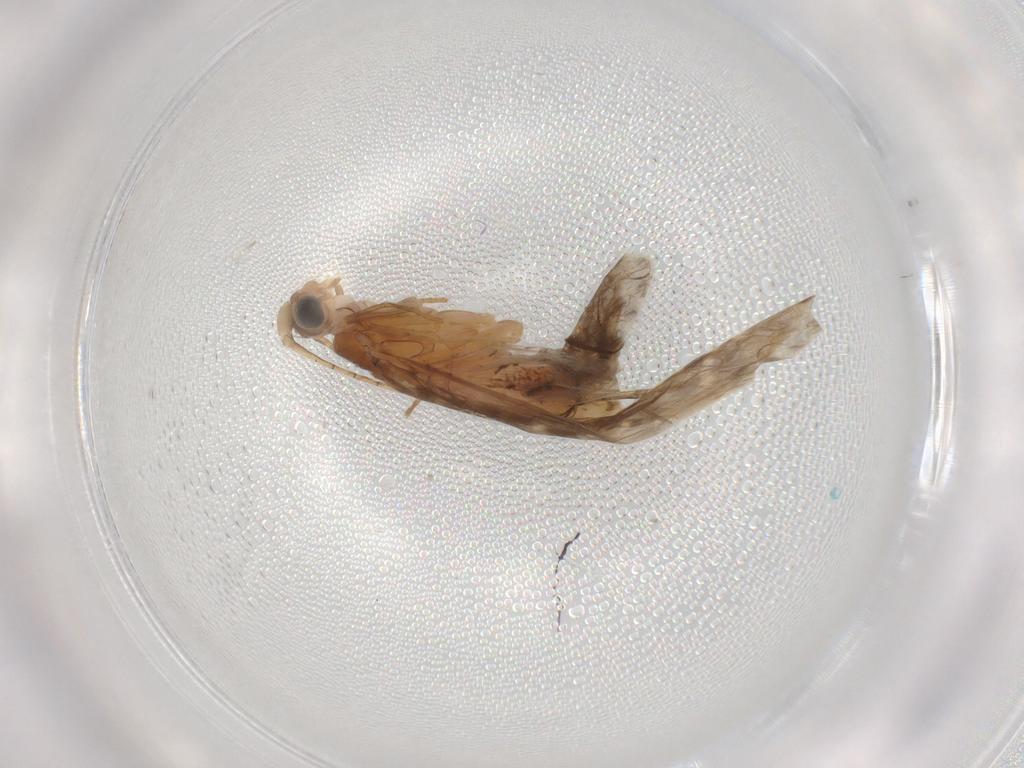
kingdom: Animalia
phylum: Arthropoda
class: Insecta
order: Trichoptera
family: Leptoceridae
